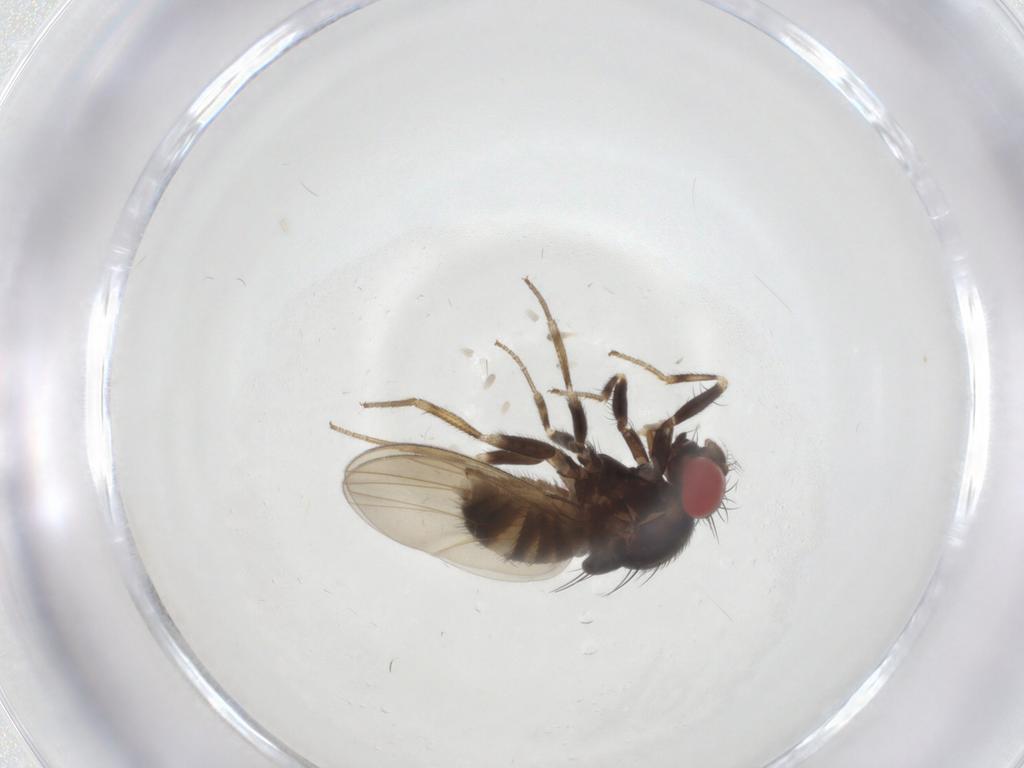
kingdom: Animalia
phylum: Arthropoda
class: Insecta
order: Diptera
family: Drosophilidae
